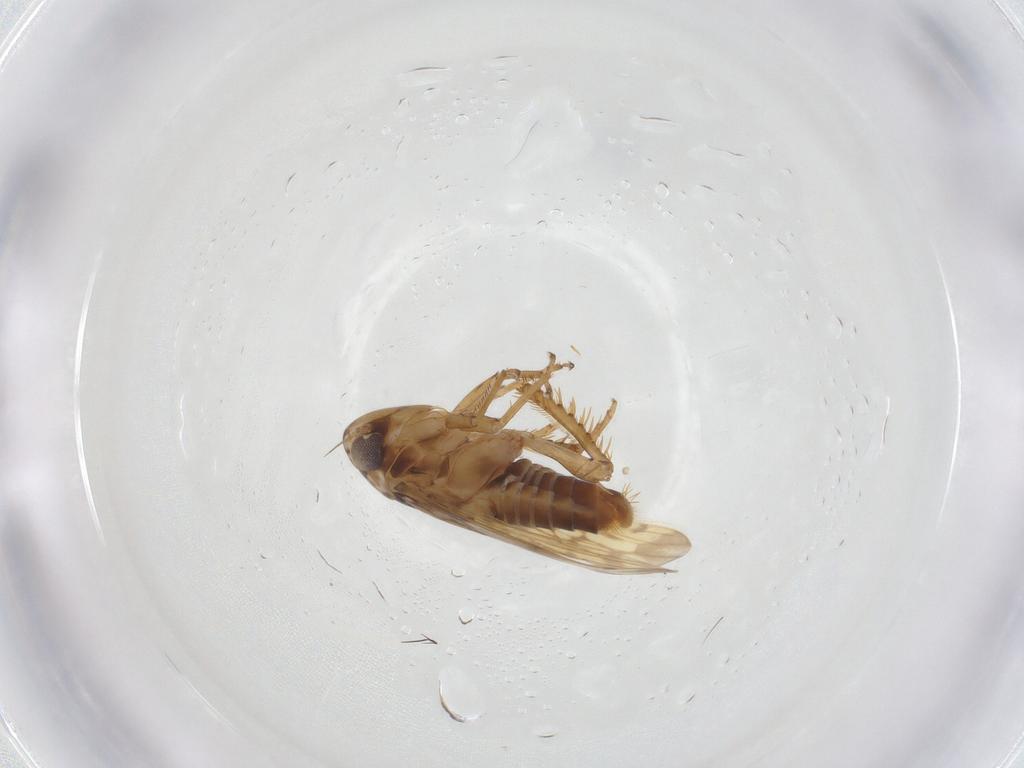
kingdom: Animalia
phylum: Arthropoda
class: Insecta
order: Hemiptera
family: Cicadellidae
